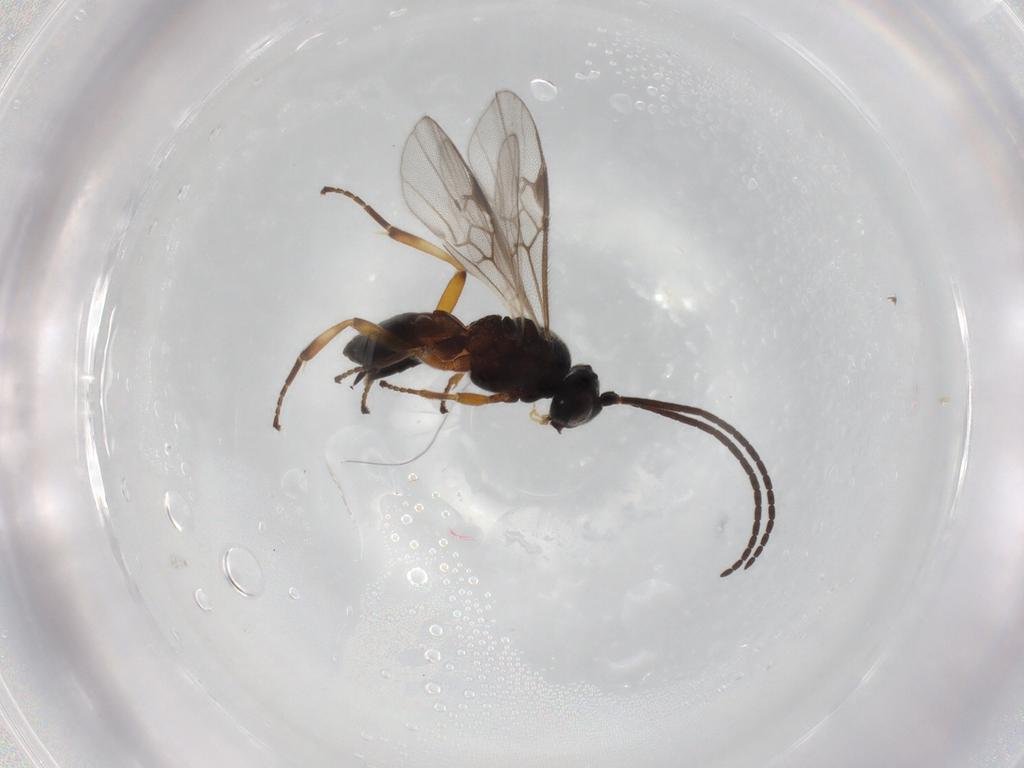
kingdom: Animalia
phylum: Arthropoda
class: Insecta
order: Hymenoptera
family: Braconidae
